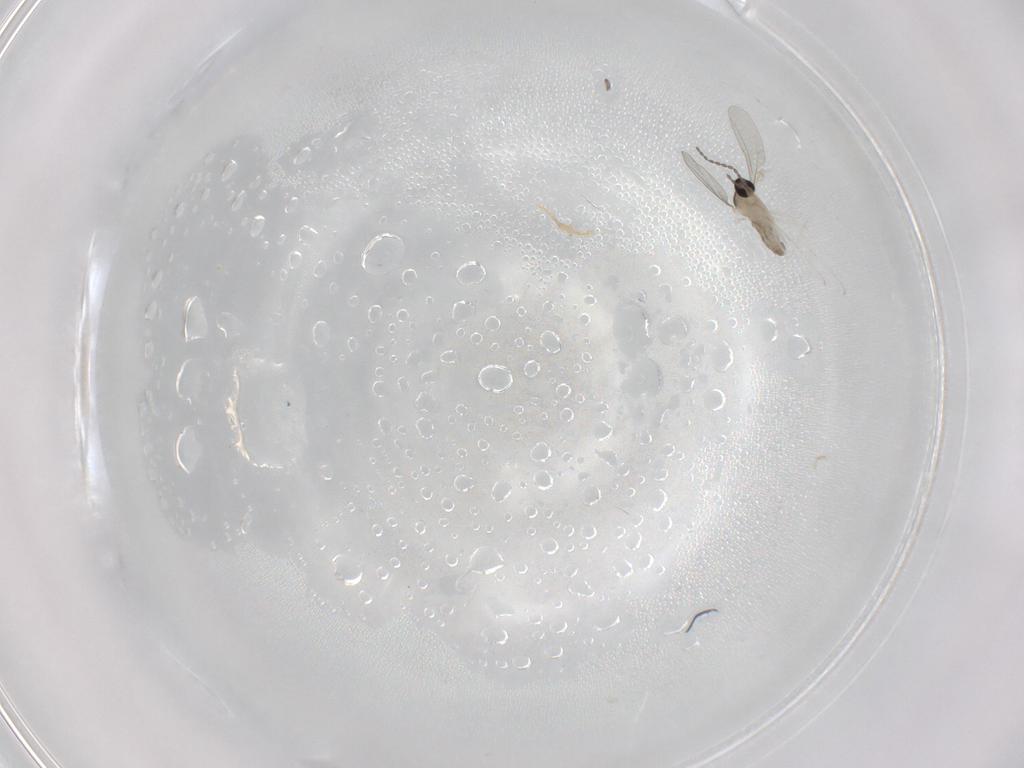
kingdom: Animalia
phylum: Arthropoda
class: Insecta
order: Diptera
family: Cecidomyiidae
